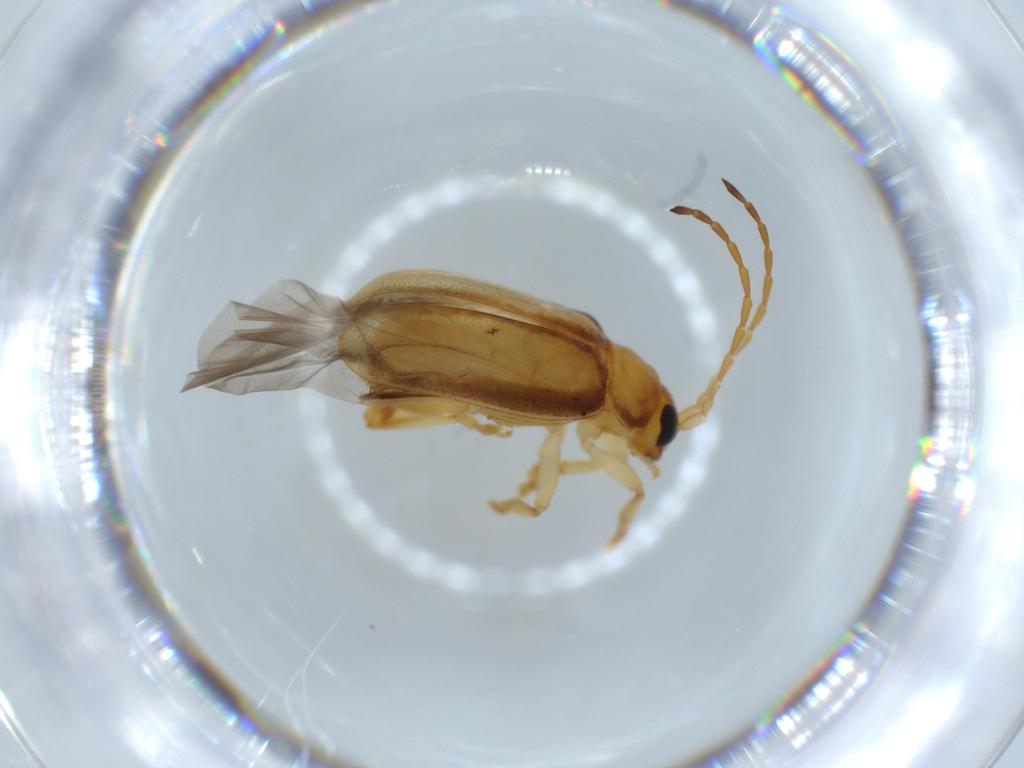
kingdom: Animalia
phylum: Arthropoda
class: Insecta
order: Coleoptera
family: Chrysomelidae
